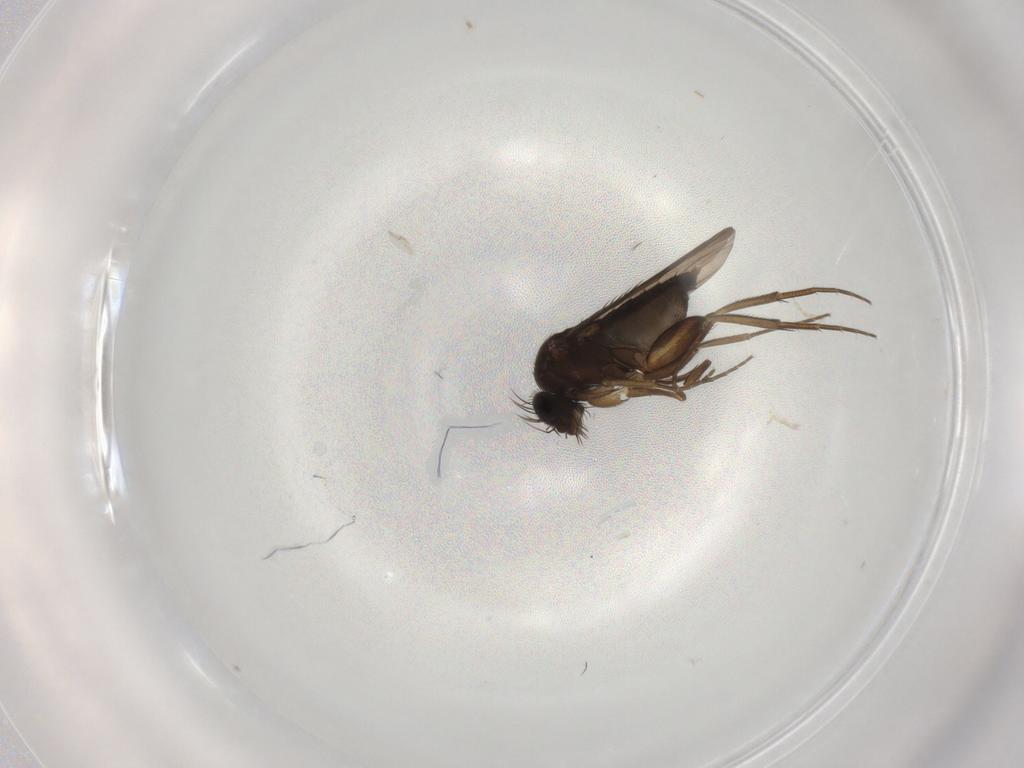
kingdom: Animalia
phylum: Arthropoda
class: Insecta
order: Diptera
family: Phoridae
